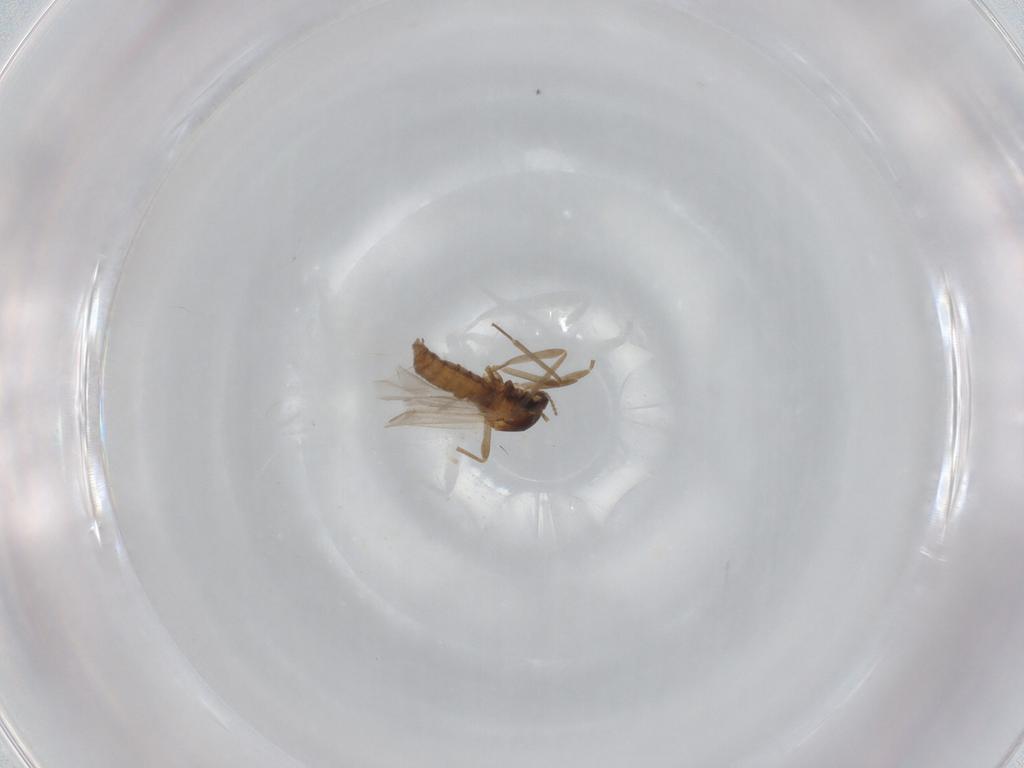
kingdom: Animalia
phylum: Arthropoda
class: Insecta
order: Diptera
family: Cecidomyiidae
